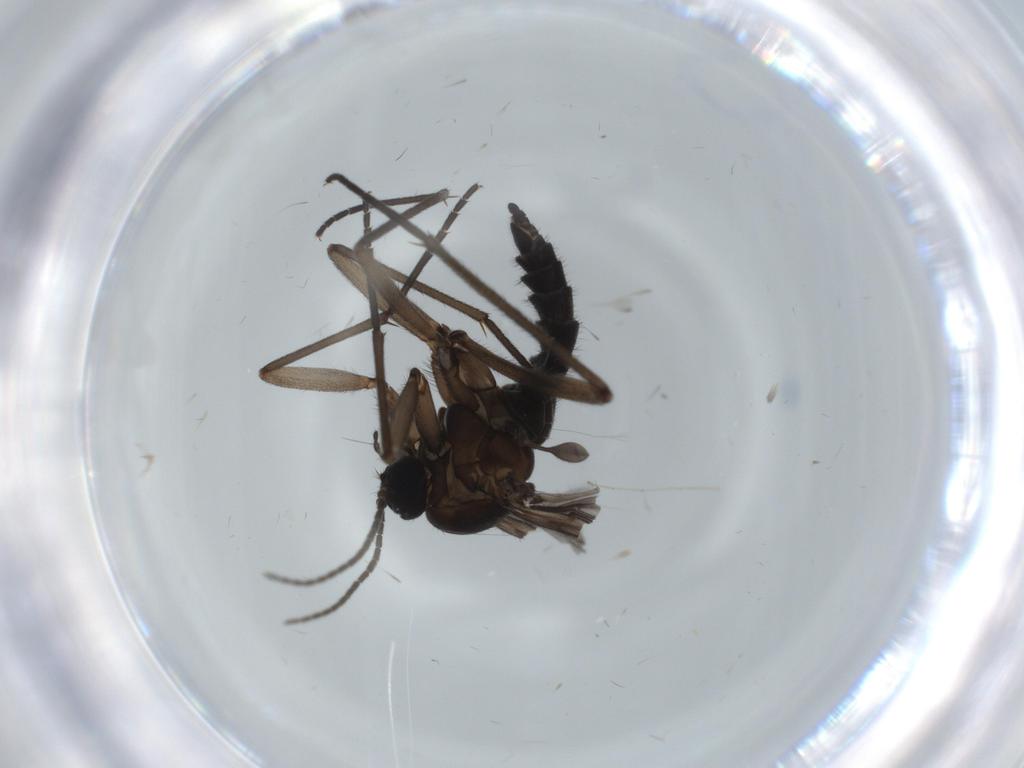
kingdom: Animalia
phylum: Arthropoda
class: Insecta
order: Diptera
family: Sciaridae
